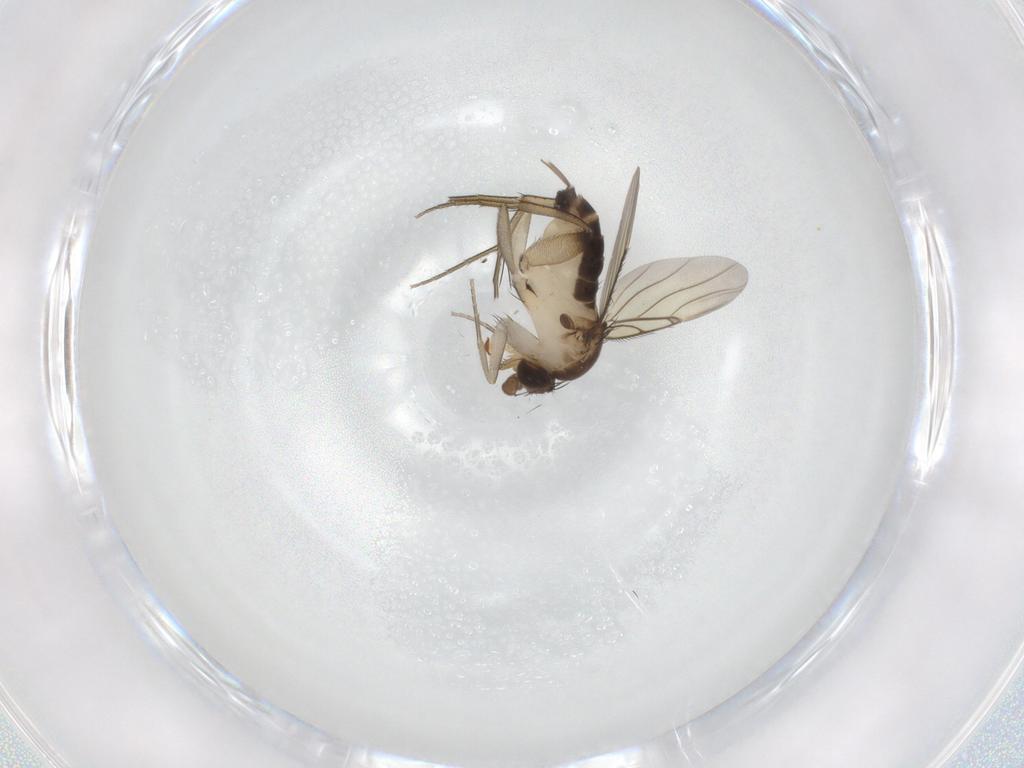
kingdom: Animalia
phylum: Arthropoda
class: Insecta
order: Diptera
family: Phoridae
